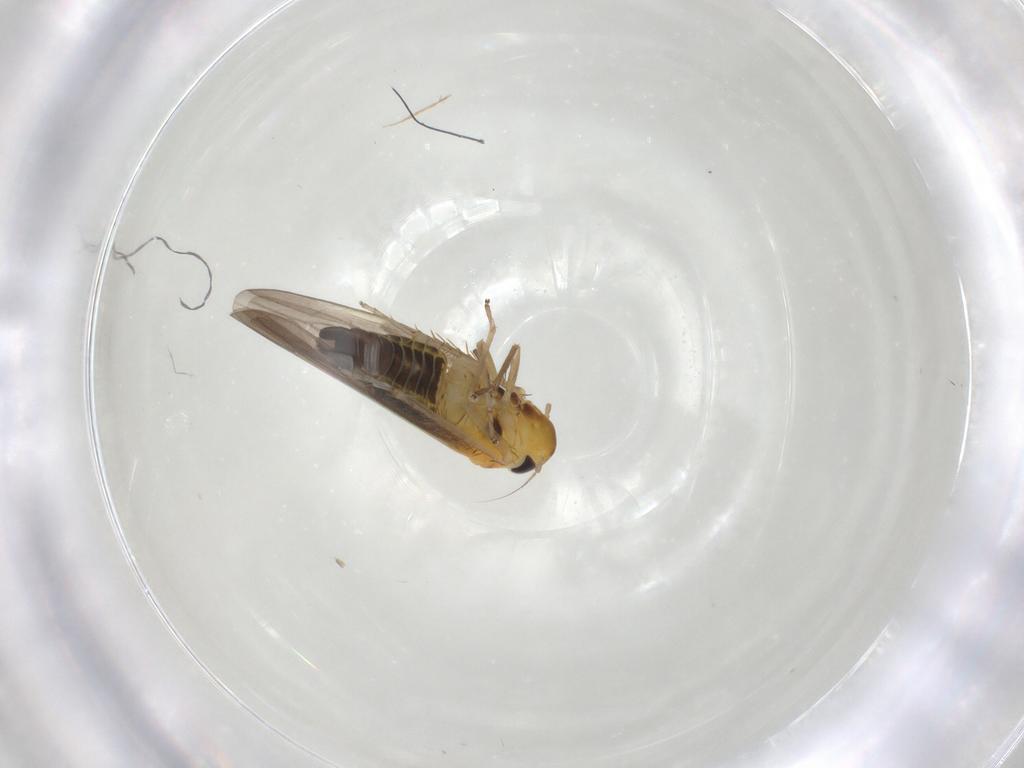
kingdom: Animalia
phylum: Arthropoda
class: Insecta
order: Hemiptera
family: Cicadellidae
